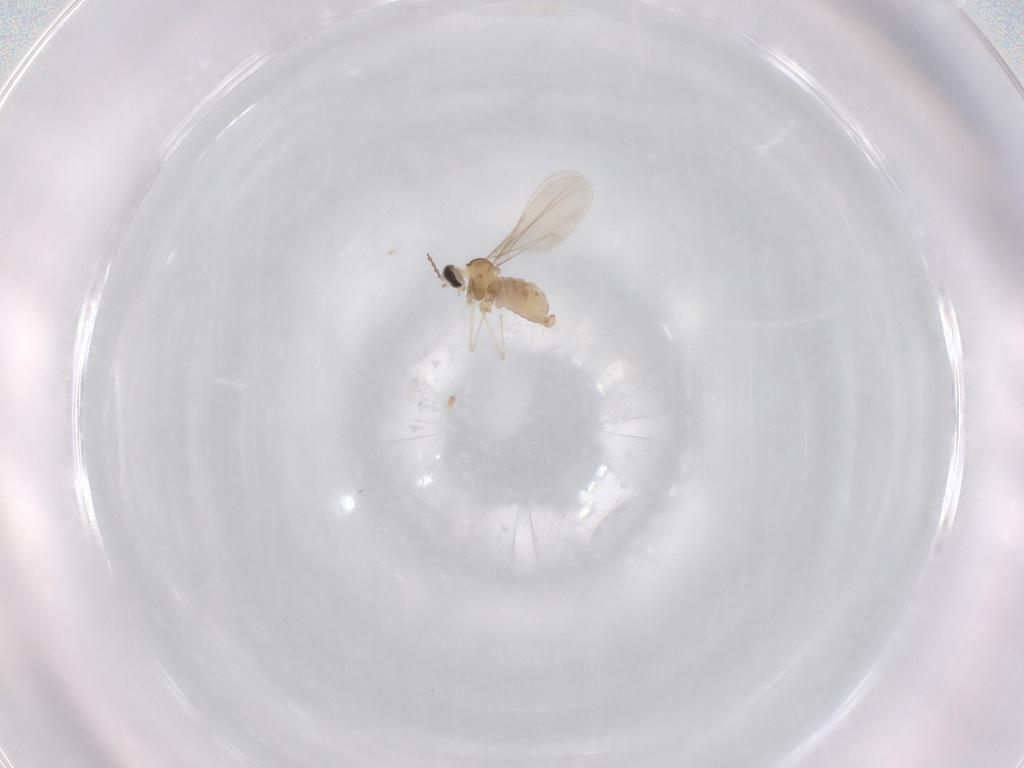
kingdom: Animalia
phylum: Arthropoda
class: Insecta
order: Diptera
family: Cecidomyiidae
